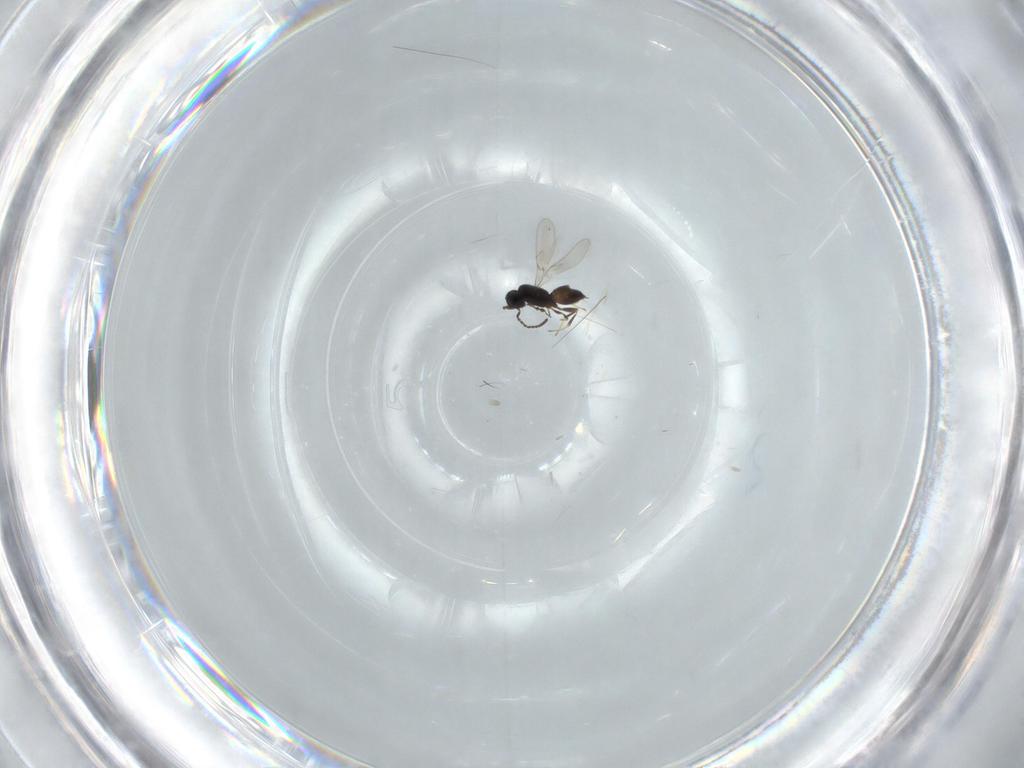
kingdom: Animalia
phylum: Arthropoda
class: Insecta
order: Hymenoptera
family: Scelionidae
